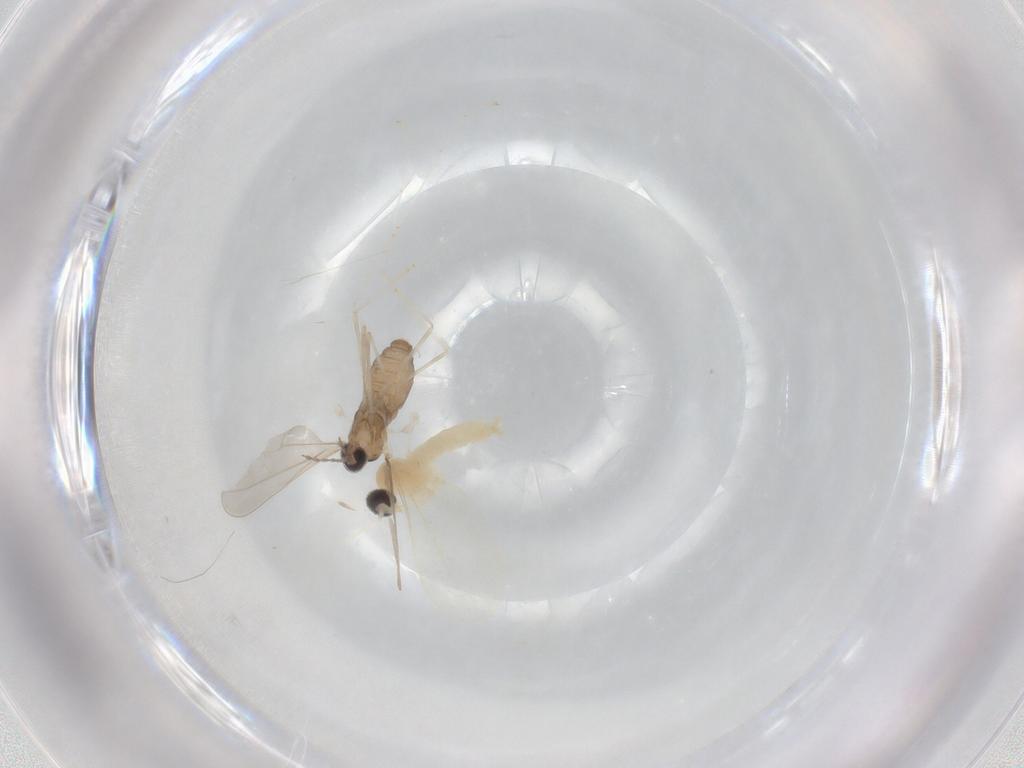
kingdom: Animalia
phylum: Arthropoda
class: Insecta
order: Diptera
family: Cecidomyiidae
